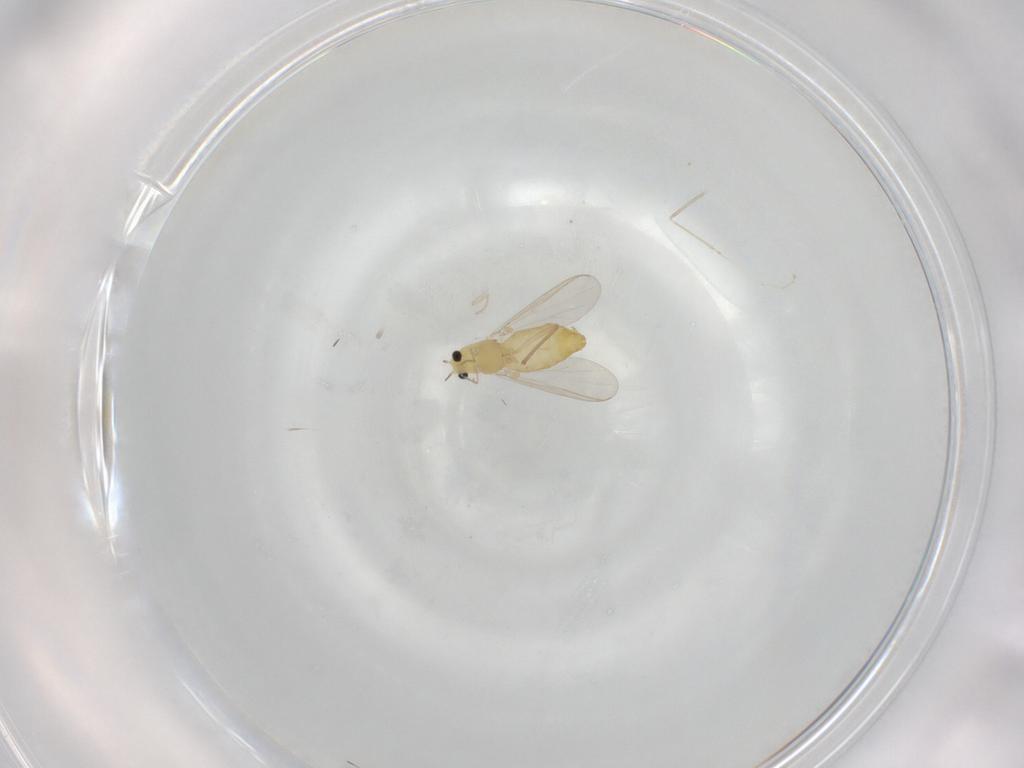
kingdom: Animalia
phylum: Arthropoda
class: Insecta
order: Diptera
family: Chironomidae
